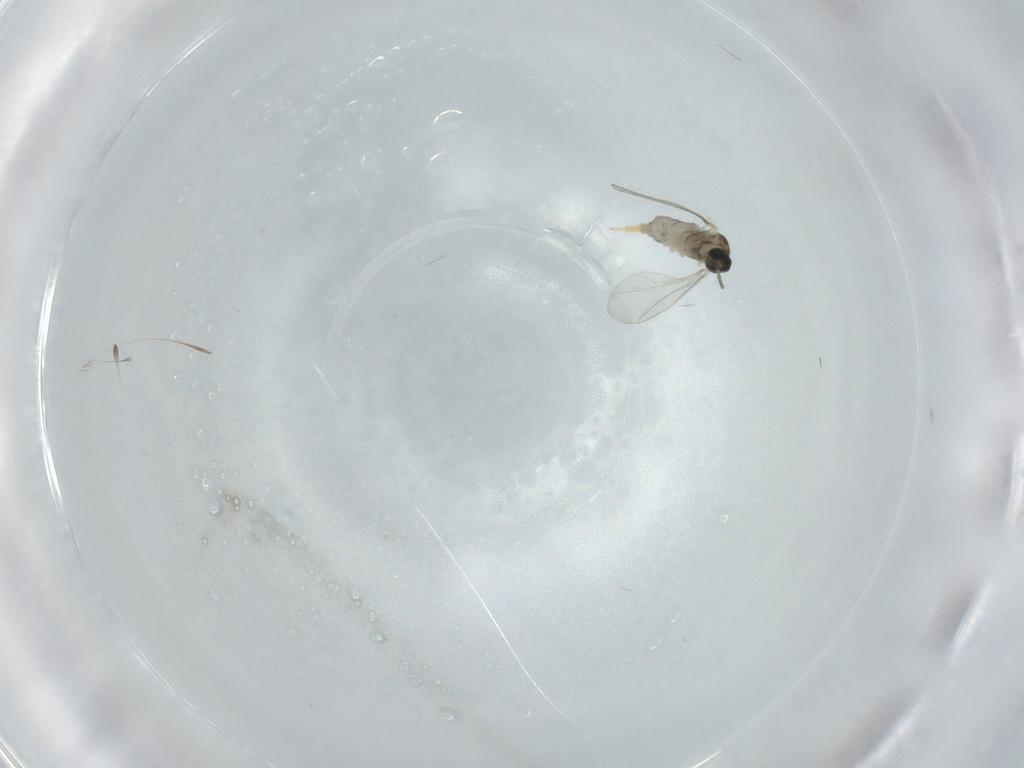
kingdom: Animalia
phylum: Arthropoda
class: Insecta
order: Diptera
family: Cecidomyiidae
